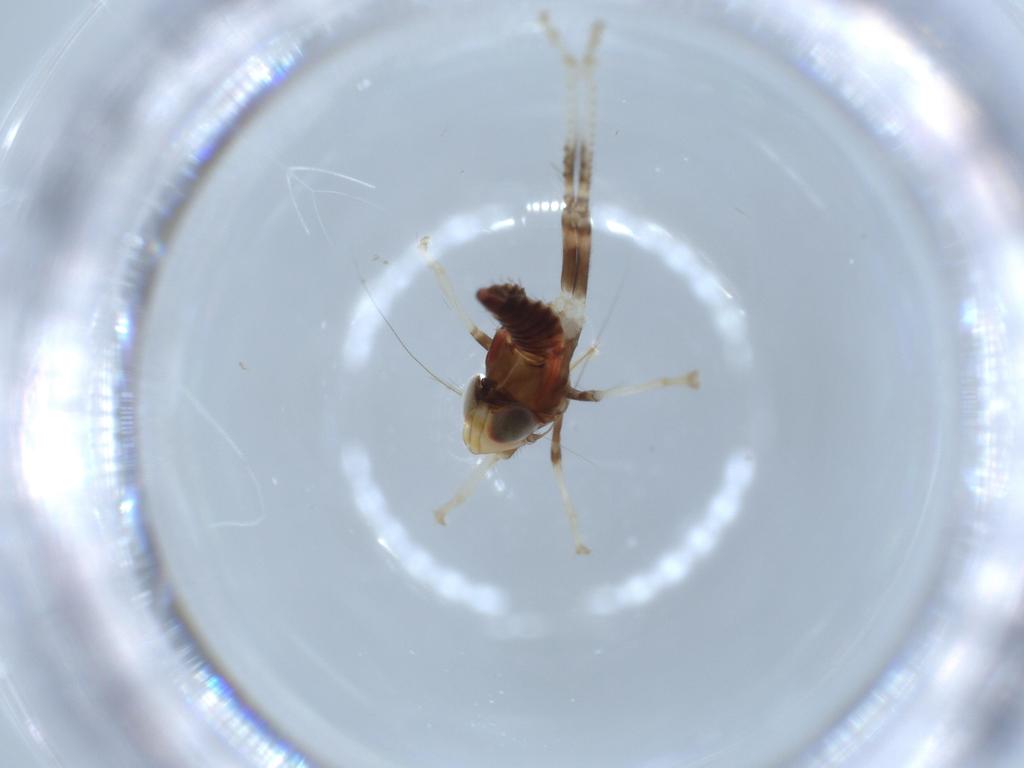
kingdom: Animalia
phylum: Arthropoda
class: Insecta
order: Hemiptera
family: Cicadellidae
